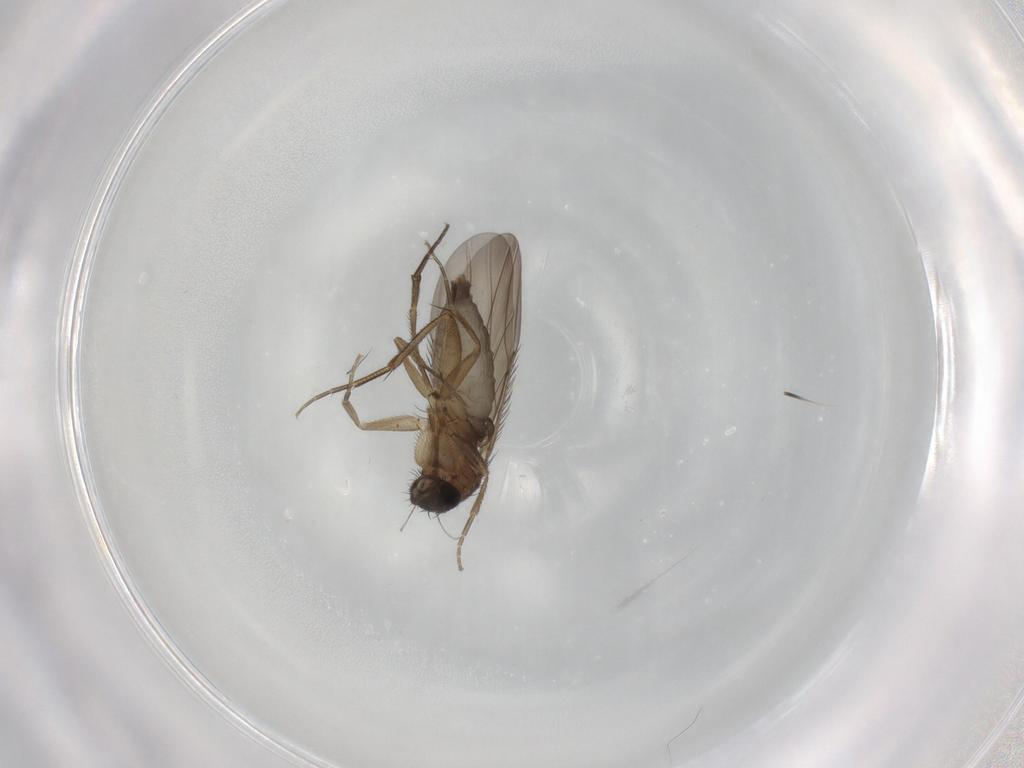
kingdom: Animalia
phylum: Arthropoda
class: Insecta
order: Diptera
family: Phoridae
